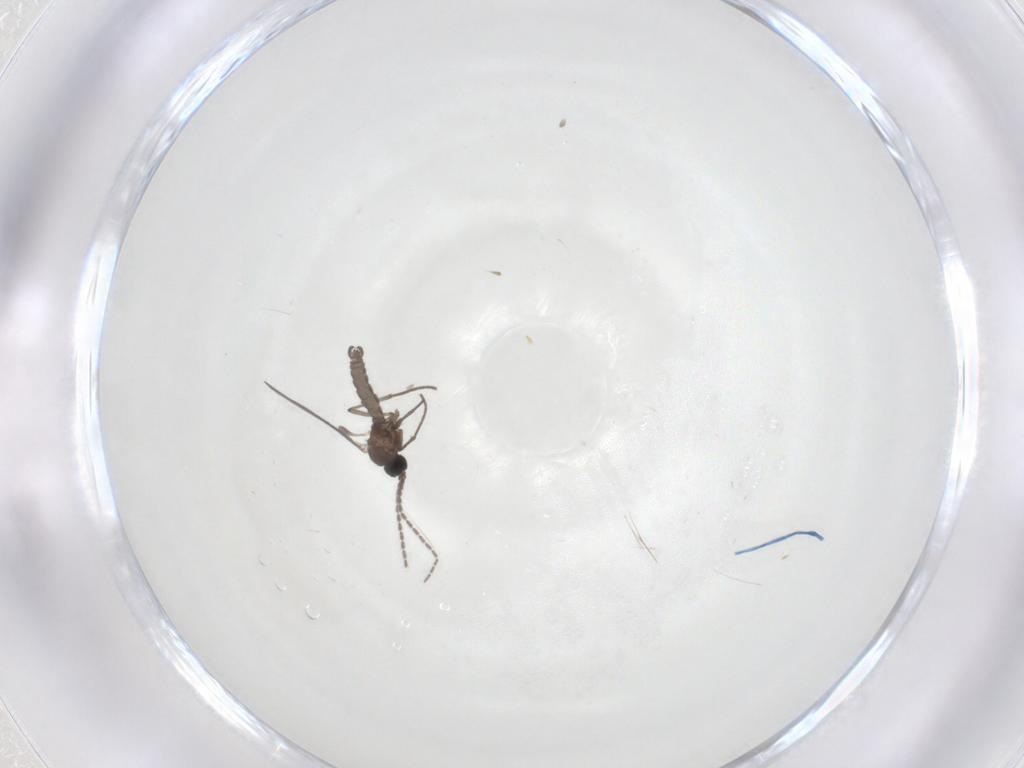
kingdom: Animalia
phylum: Arthropoda
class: Insecta
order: Diptera
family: Sciaridae
